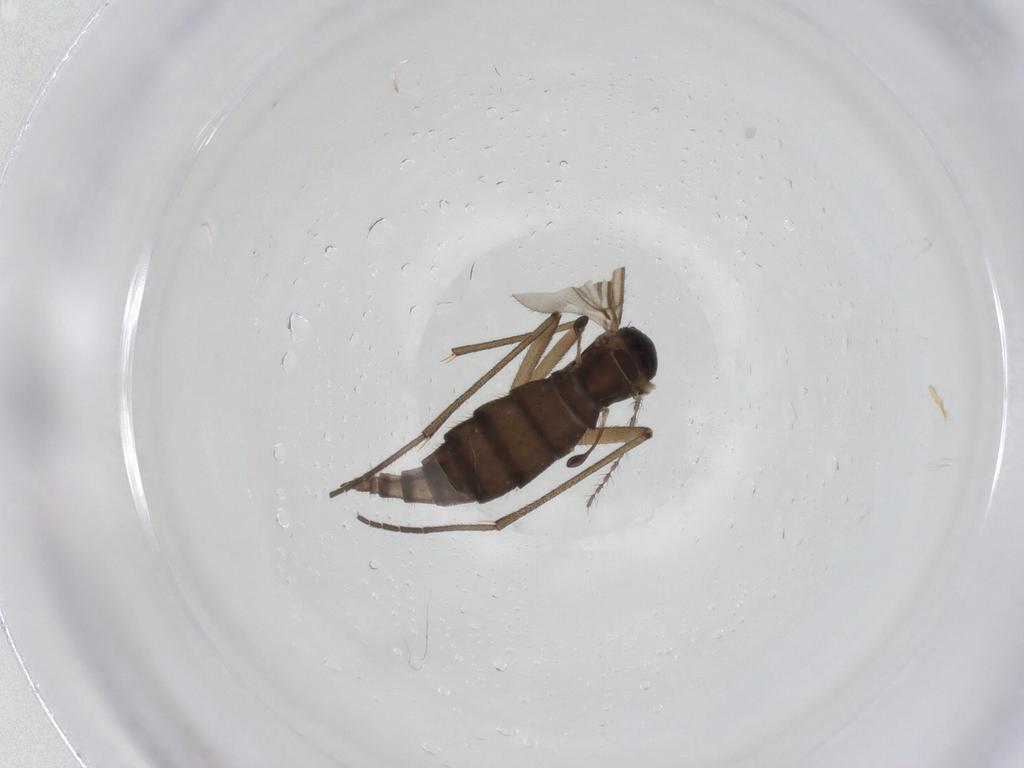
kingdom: Animalia
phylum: Arthropoda
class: Insecta
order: Diptera
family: Sciaridae
